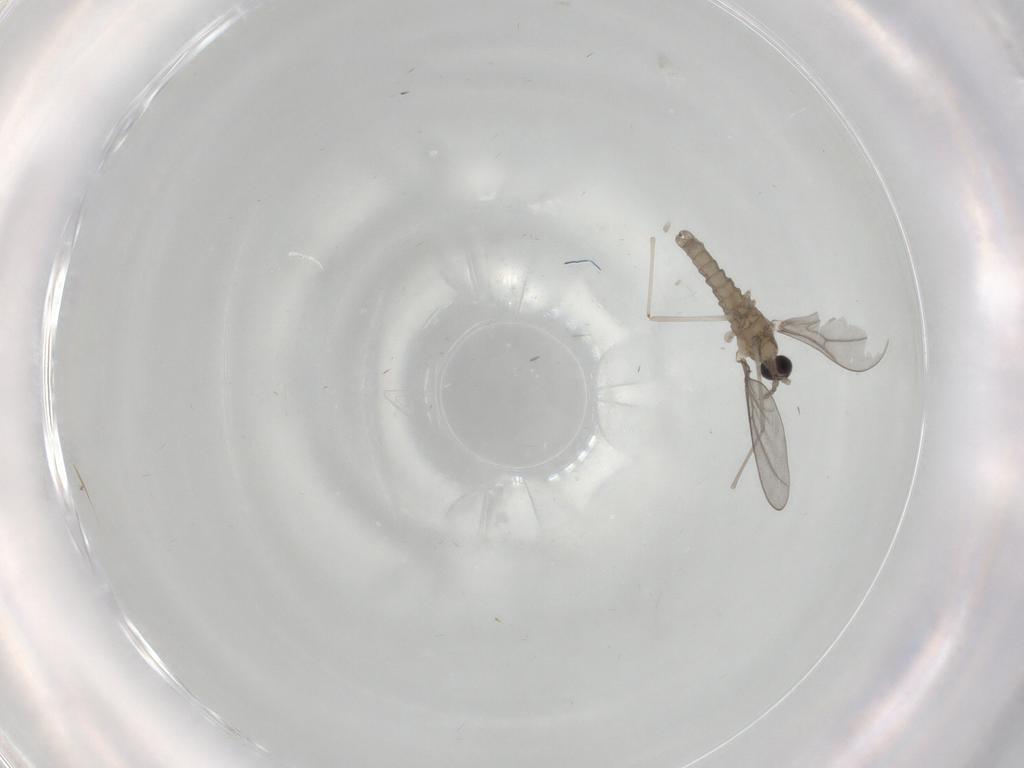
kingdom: Animalia
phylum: Arthropoda
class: Insecta
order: Diptera
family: Cecidomyiidae
